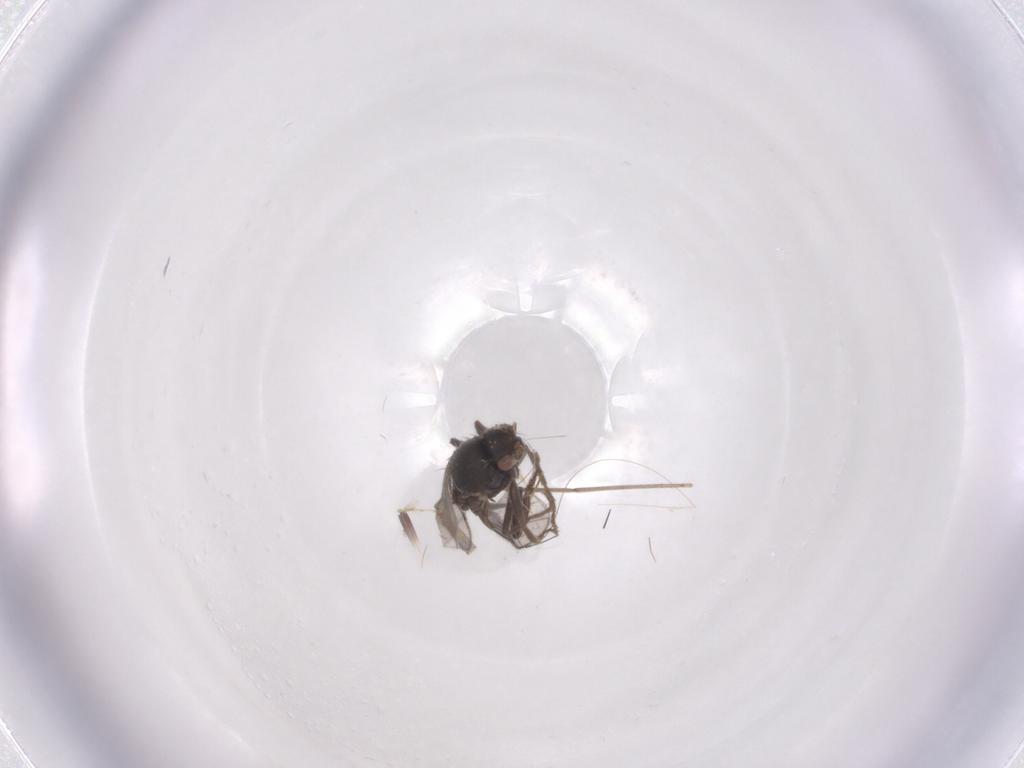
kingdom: Animalia
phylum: Arthropoda
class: Insecta
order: Diptera
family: Sphaeroceridae
